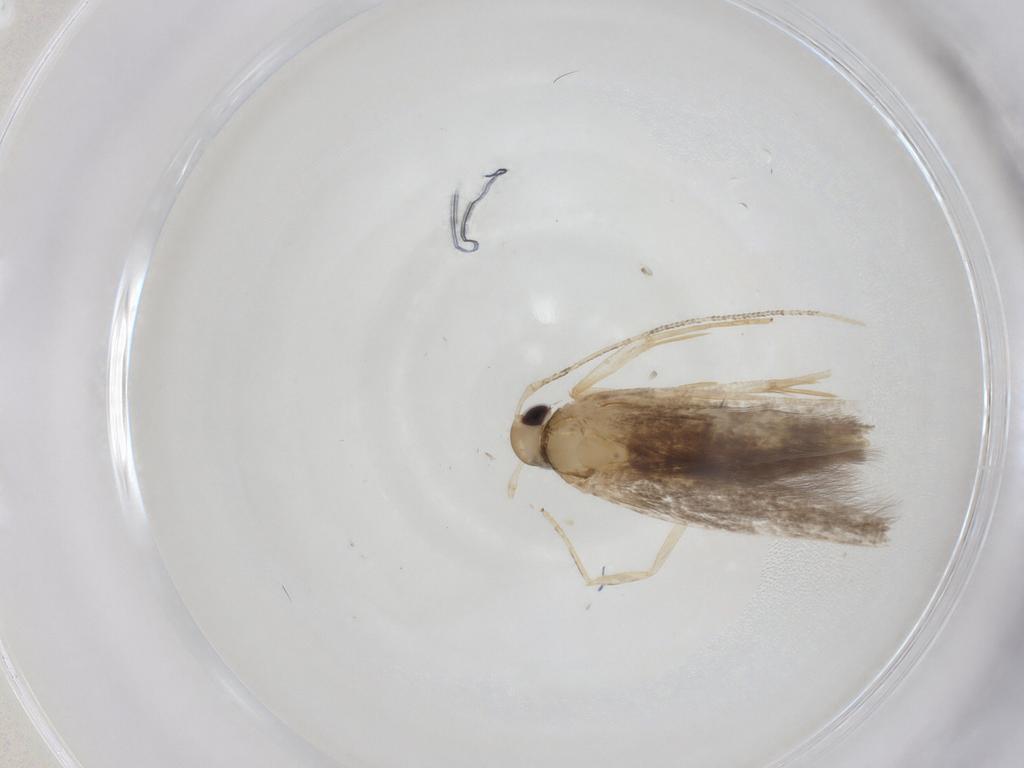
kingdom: Animalia
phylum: Arthropoda
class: Insecta
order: Lepidoptera
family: Cosmopterigidae
